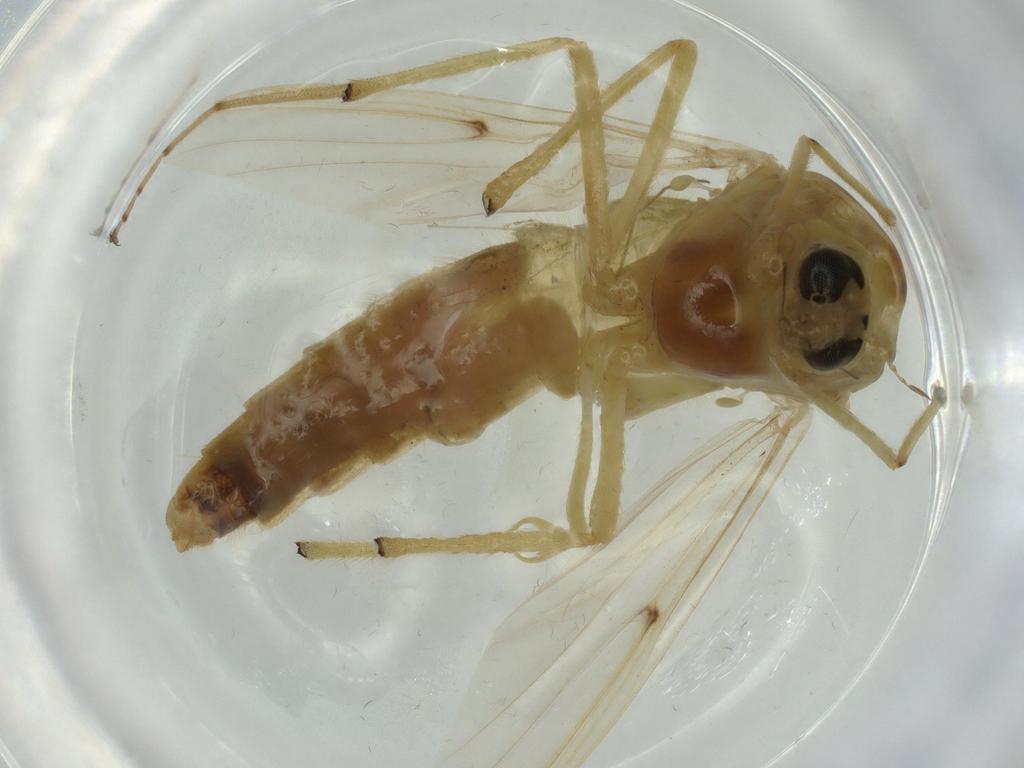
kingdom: Animalia
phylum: Arthropoda
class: Insecta
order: Diptera
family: Chironomidae
